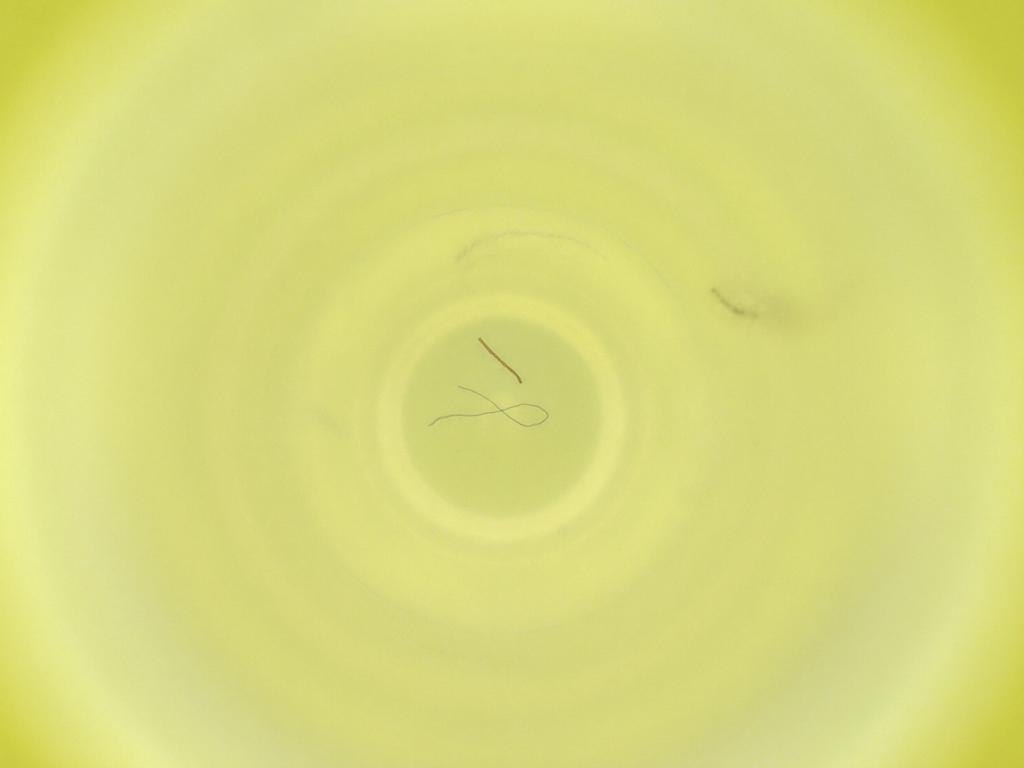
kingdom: Animalia
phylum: Arthropoda
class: Insecta
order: Diptera
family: Cecidomyiidae
